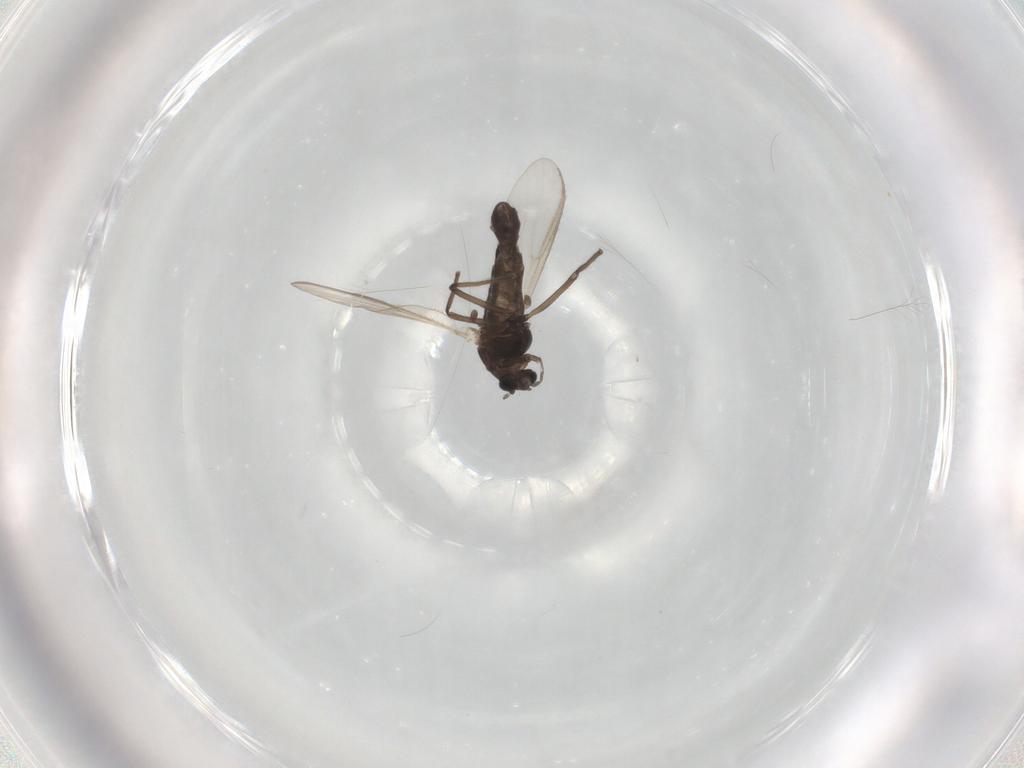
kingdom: Animalia
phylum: Arthropoda
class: Insecta
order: Diptera
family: Chironomidae
